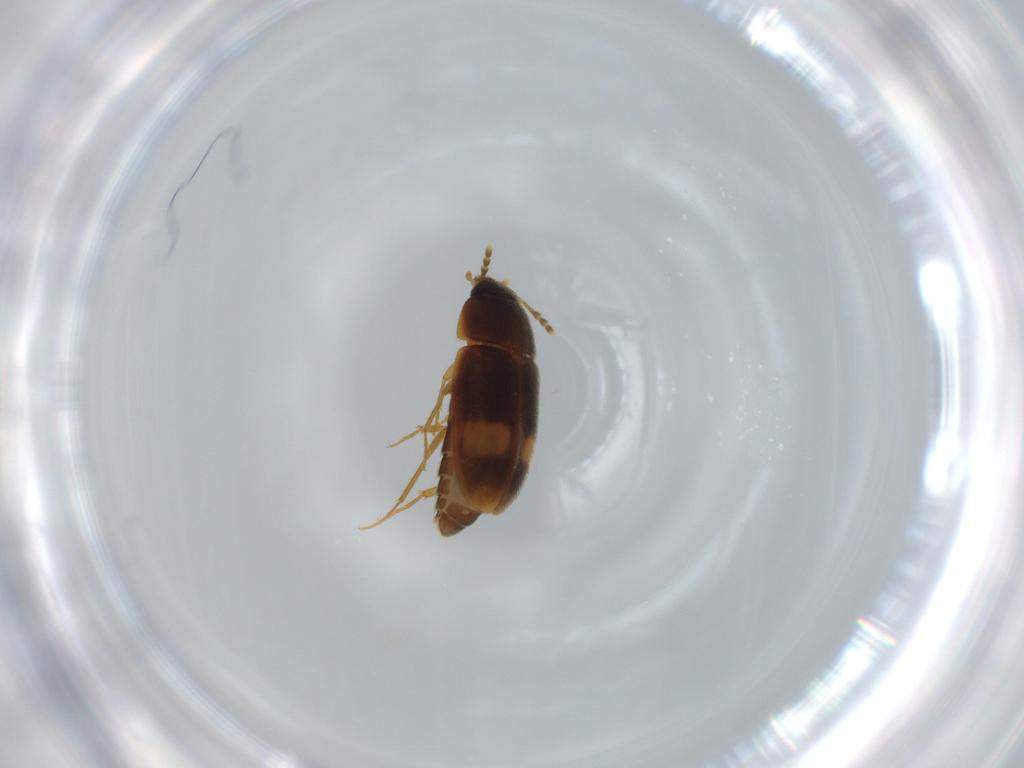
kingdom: Animalia
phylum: Arthropoda
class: Insecta
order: Coleoptera
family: Mycetophagidae
